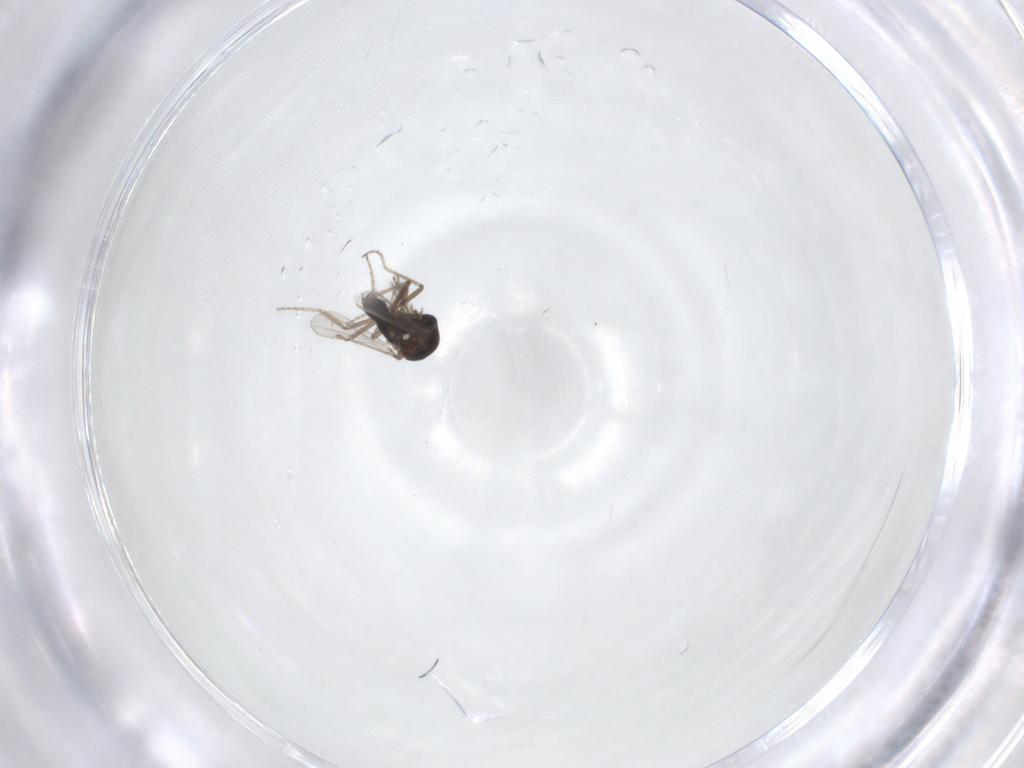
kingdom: Animalia
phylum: Arthropoda
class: Insecta
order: Diptera
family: Ceratopogonidae
